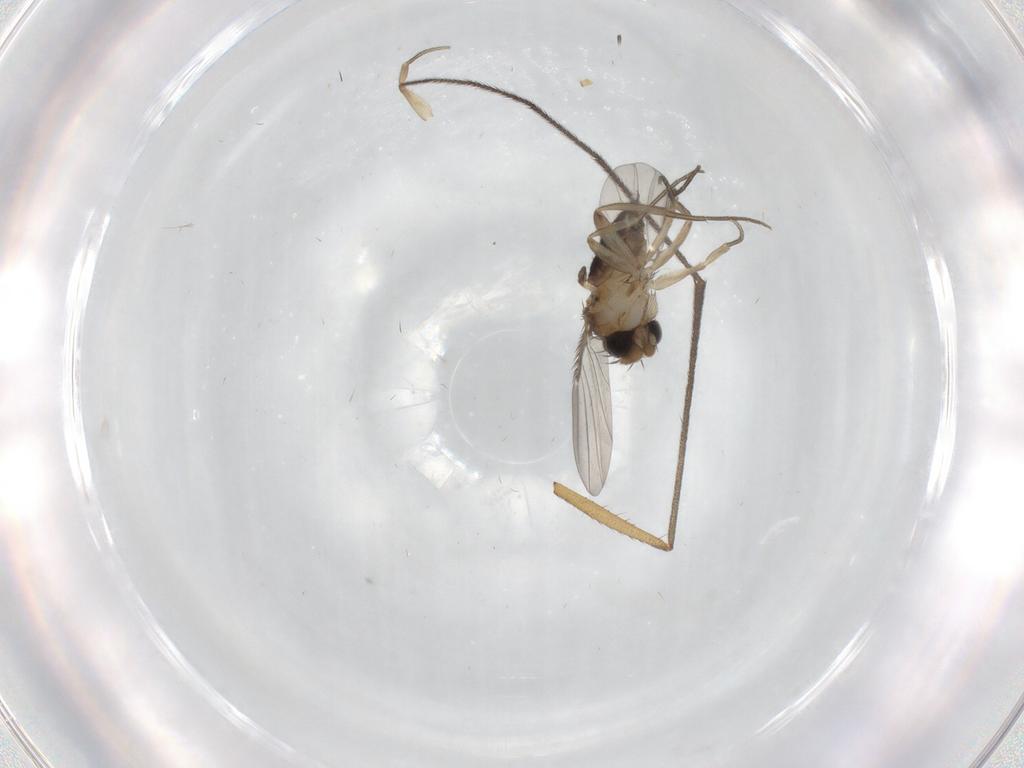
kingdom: Animalia
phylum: Arthropoda
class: Insecta
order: Diptera
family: Phoridae
